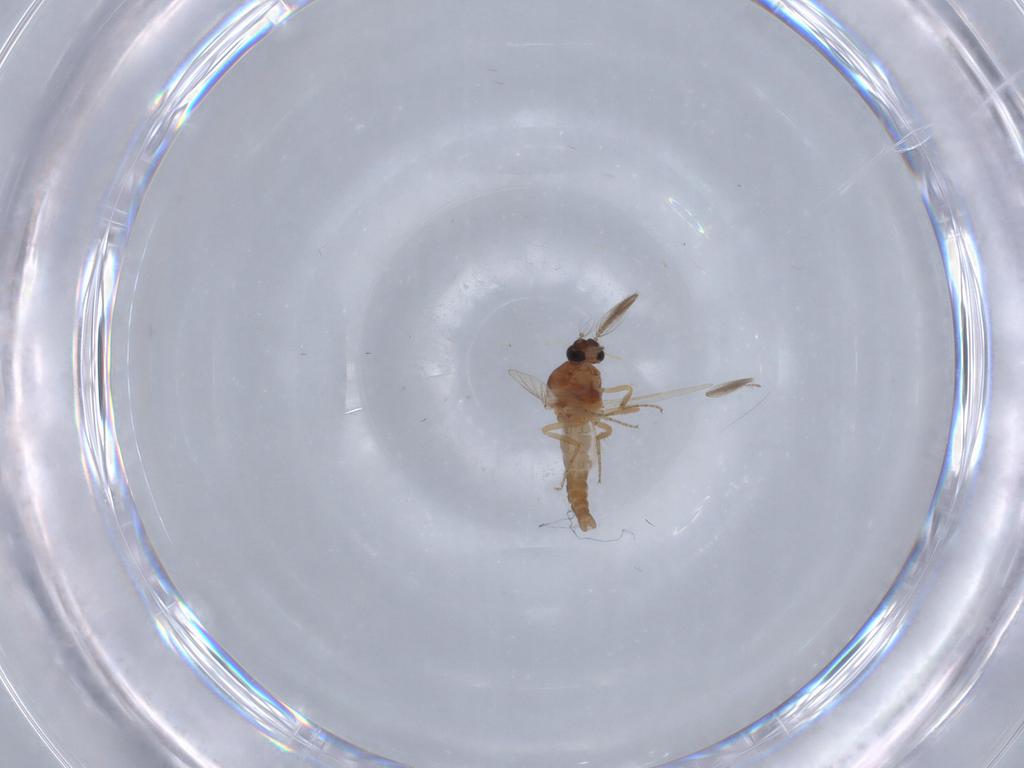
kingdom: Animalia
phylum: Arthropoda
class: Insecta
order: Diptera
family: Ceratopogonidae
